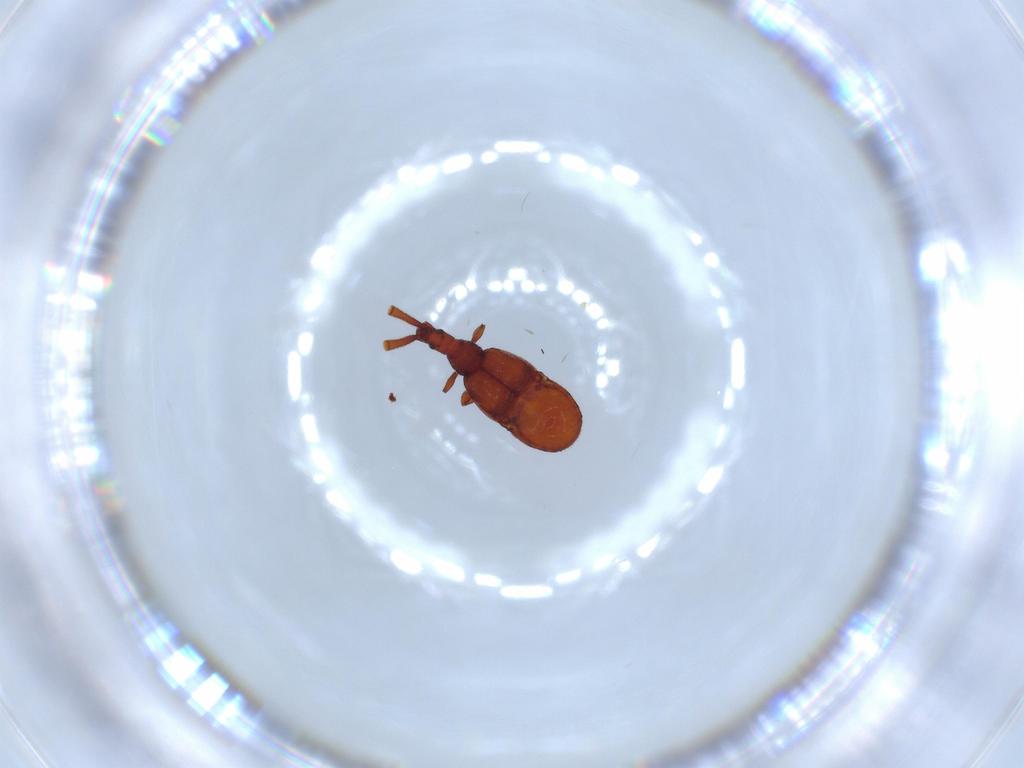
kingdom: Animalia
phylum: Arthropoda
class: Insecta
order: Coleoptera
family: Staphylinidae
